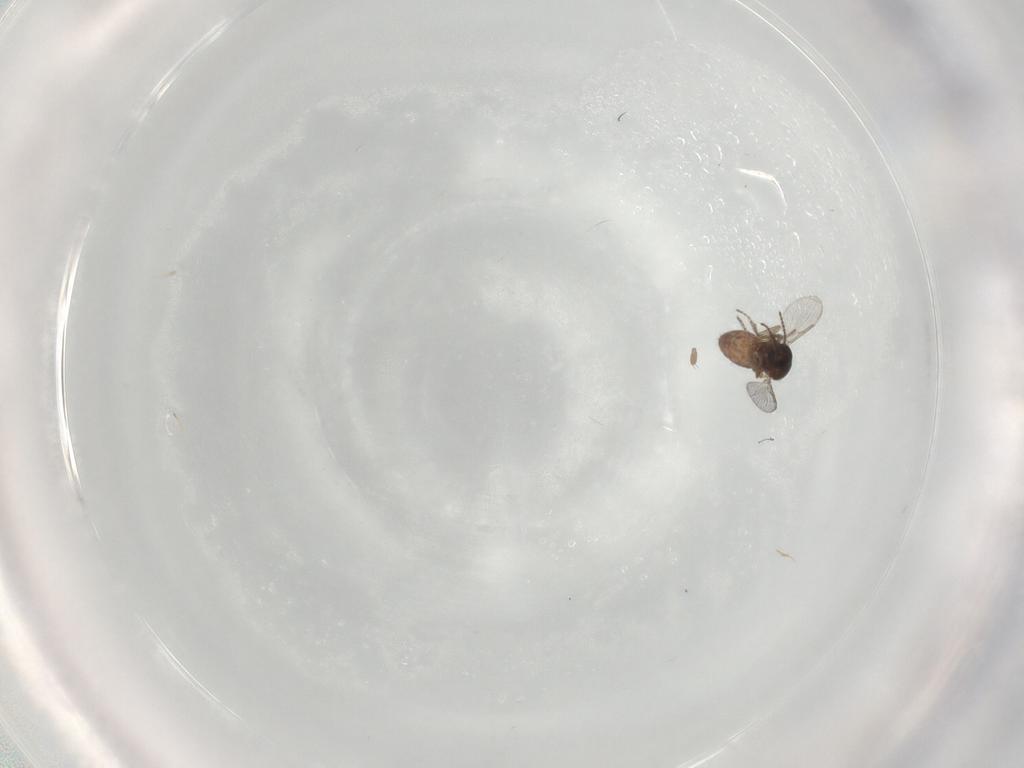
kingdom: Animalia
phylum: Arthropoda
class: Insecta
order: Diptera
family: Ceratopogonidae
